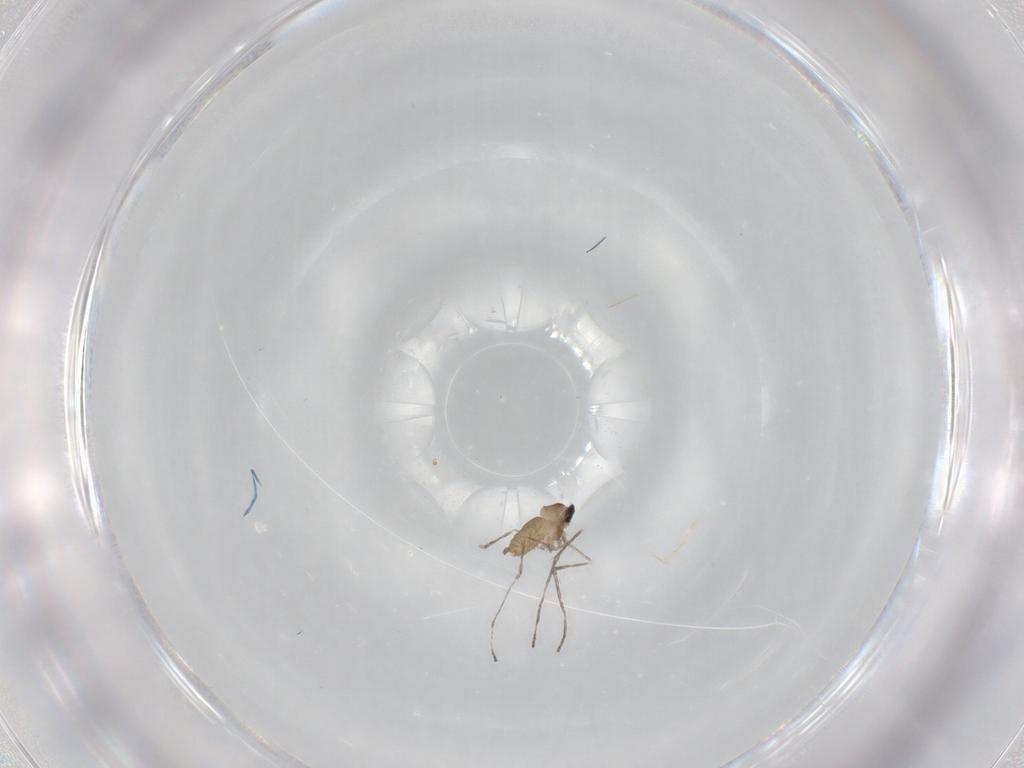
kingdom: Animalia
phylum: Arthropoda
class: Insecta
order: Diptera
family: Cecidomyiidae
